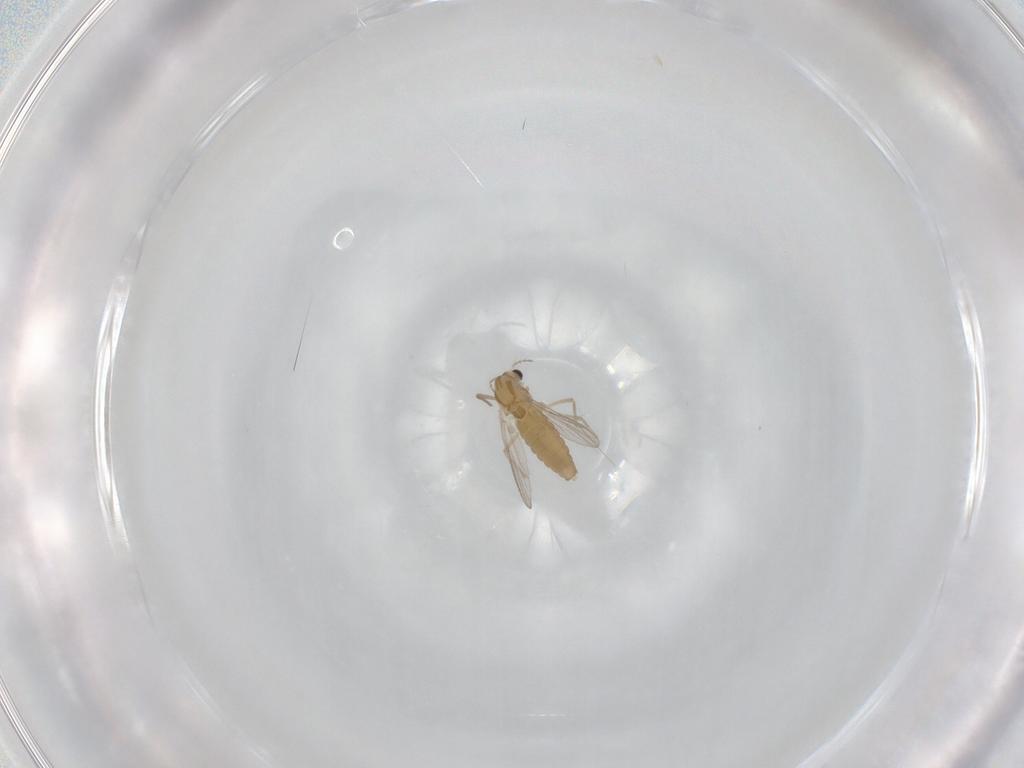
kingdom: Animalia
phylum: Arthropoda
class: Insecta
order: Diptera
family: Chironomidae
